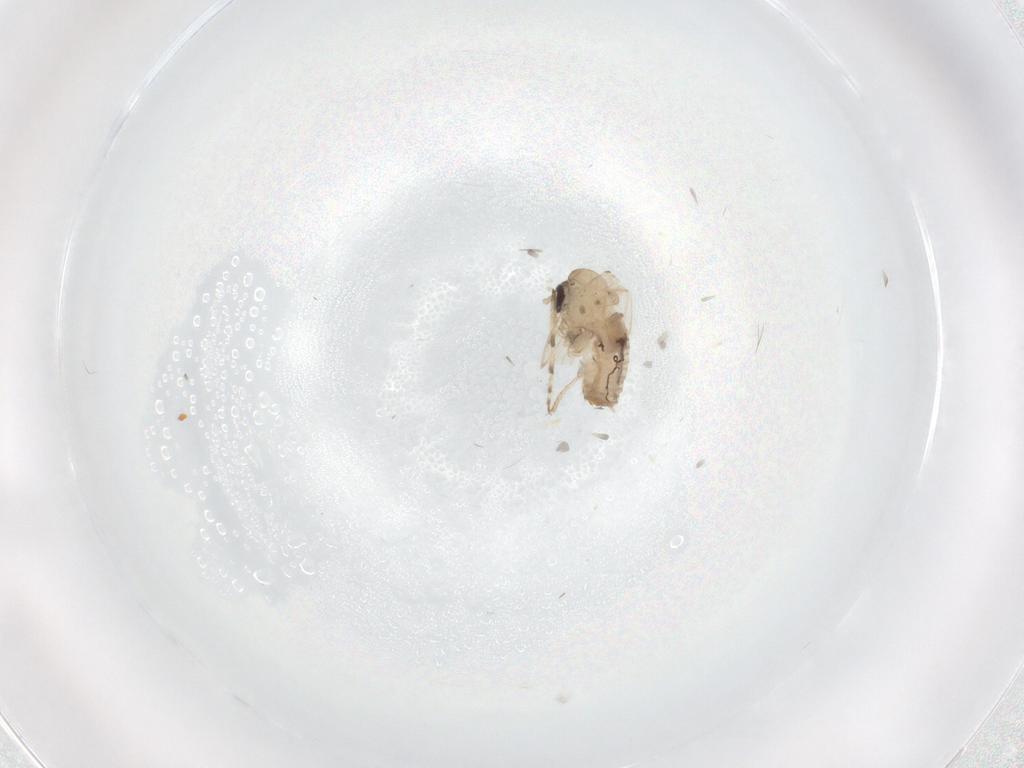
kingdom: Animalia
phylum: Arthropoda
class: Insecta
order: Diptera
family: Psychodidae
